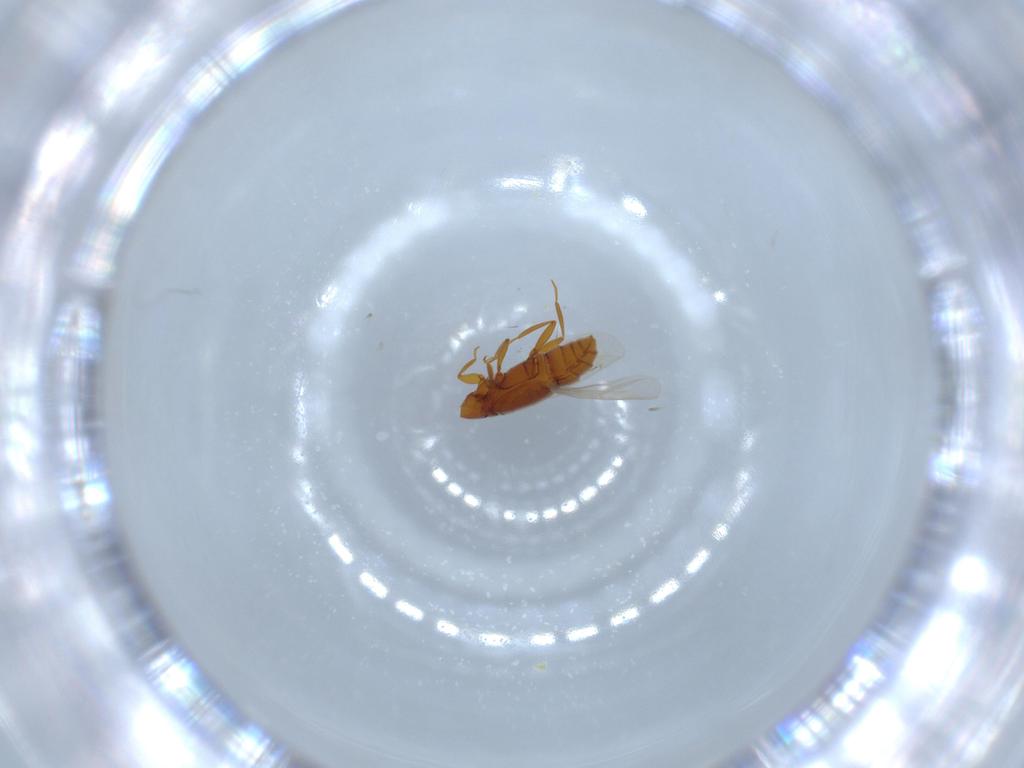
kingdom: Animalia
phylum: Arthropoda
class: Insecta
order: Coleoptera
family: Staphylinidae
